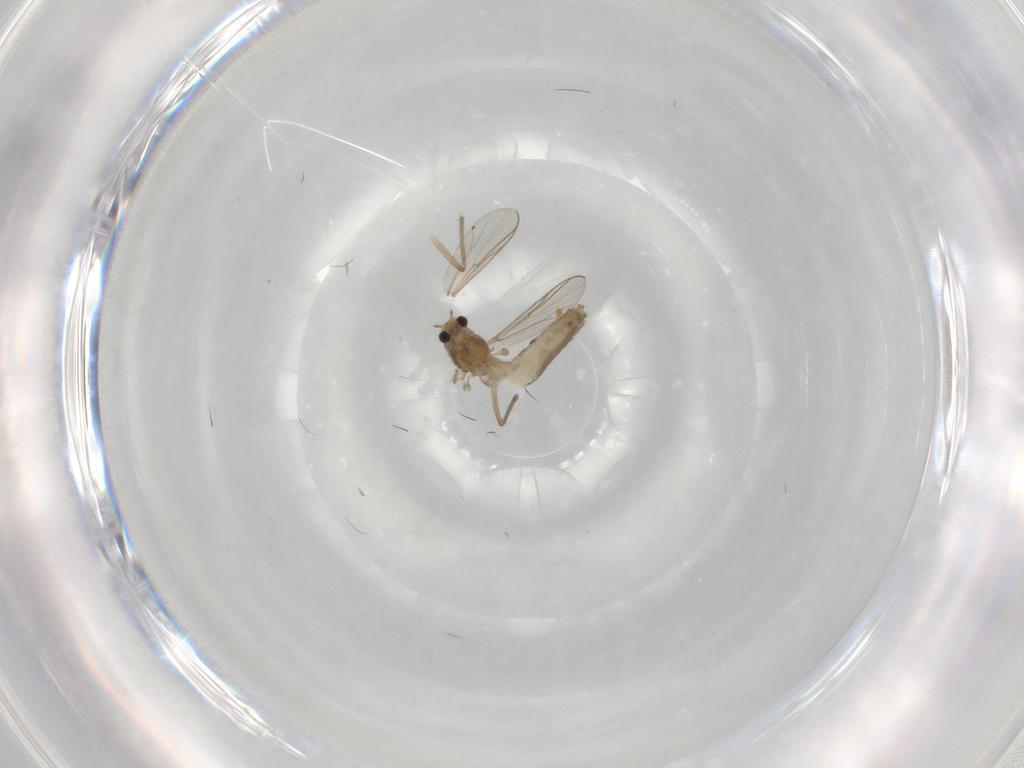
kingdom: Animalia
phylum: Arthropoda
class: Insecta
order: Diptera
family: Chironomidae
